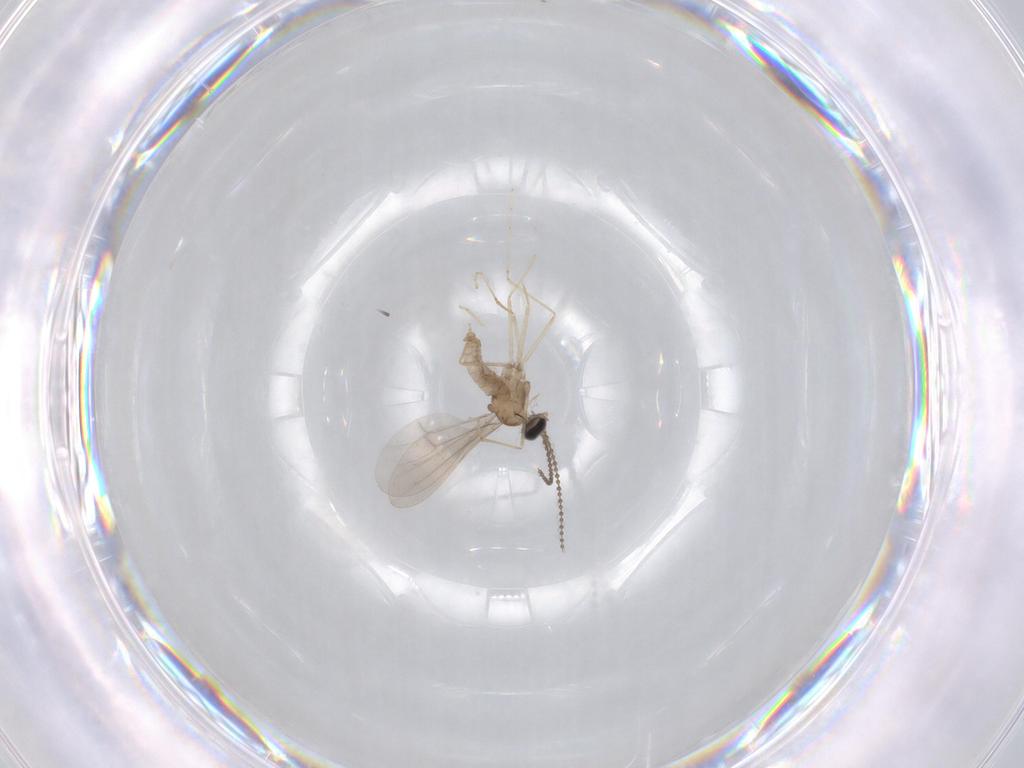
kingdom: Animalia
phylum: Arthropoda
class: Insecta
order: Diptera
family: Cecidomyiidae
